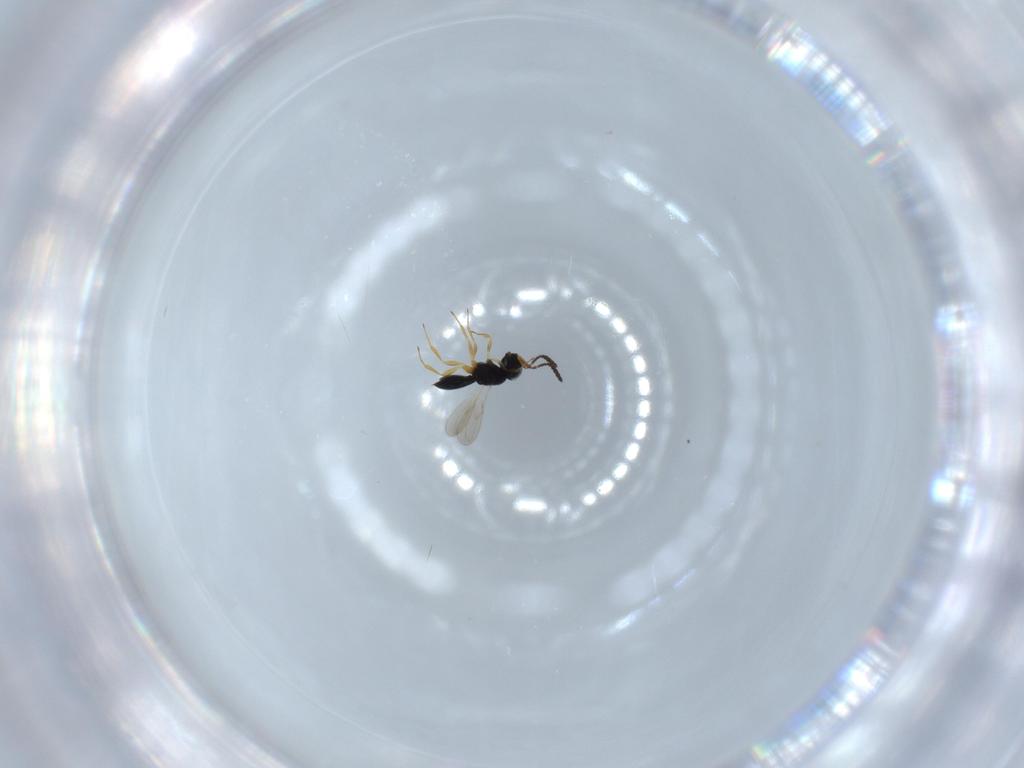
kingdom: Animalia
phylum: Arthropoda
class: Insecta
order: Hymenoptera
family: Scelionidae
